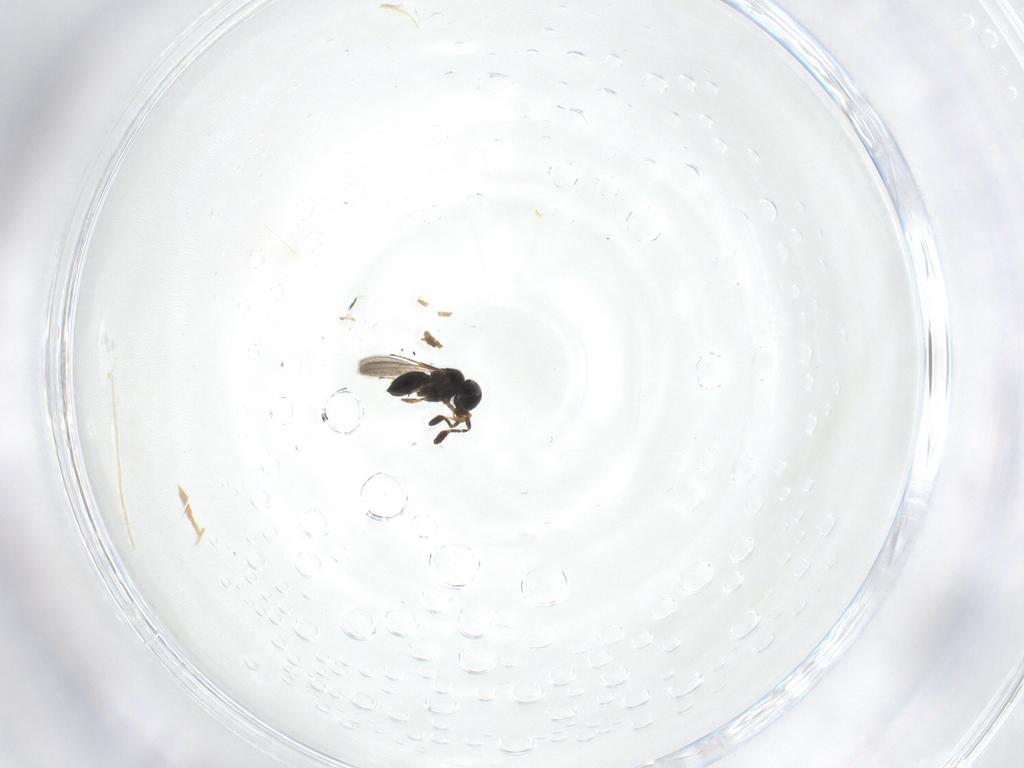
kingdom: Animalia
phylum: Arthropoda
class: Insecta
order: Hymenoptera
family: Scelionidae
